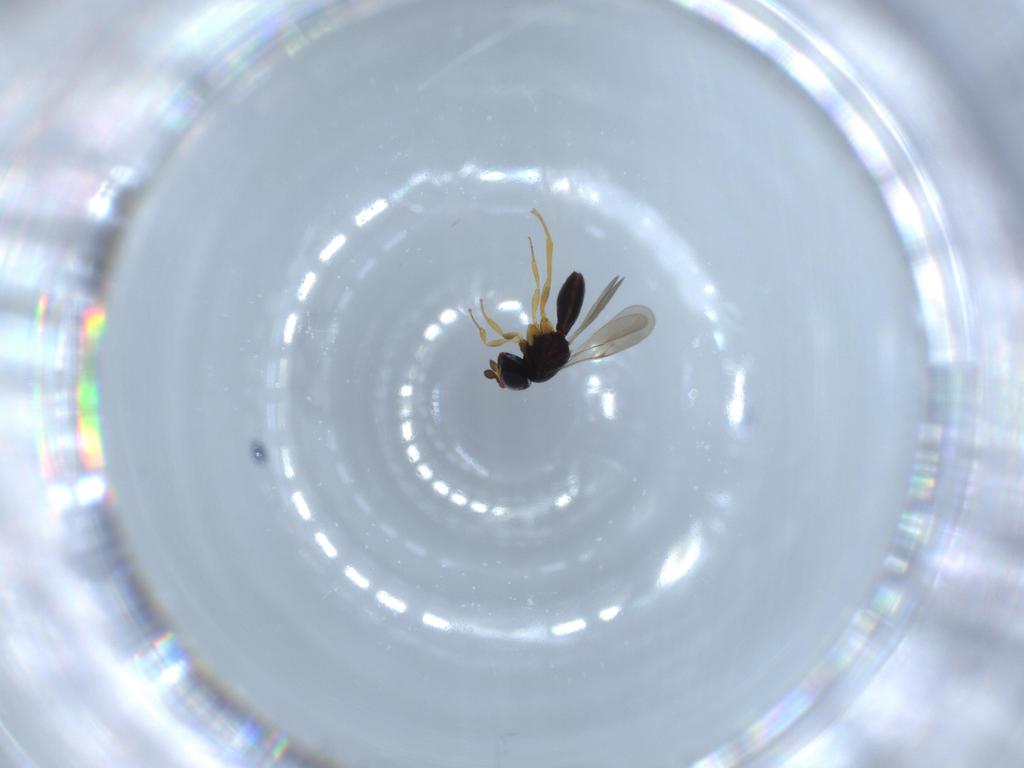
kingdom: Animalia
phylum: Arthropoda
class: Insecta
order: Hymenoptera
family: Scelionidae
